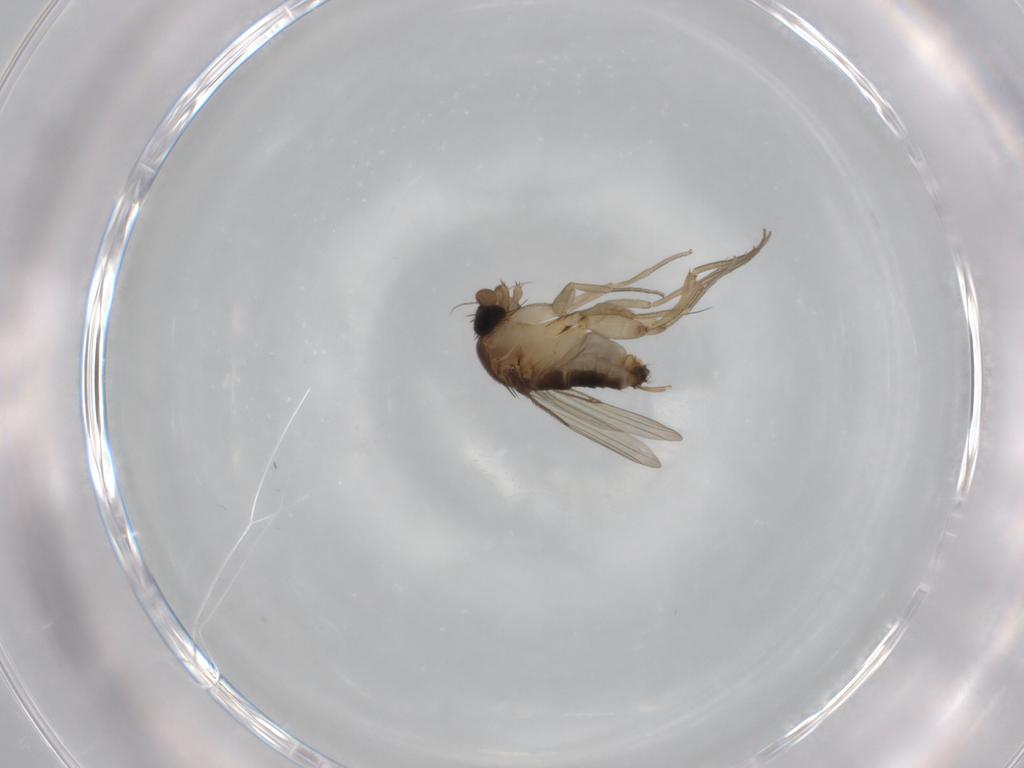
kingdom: Animalia
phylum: Arthropoda
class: Insecta
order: Diptera
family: Phoridae
